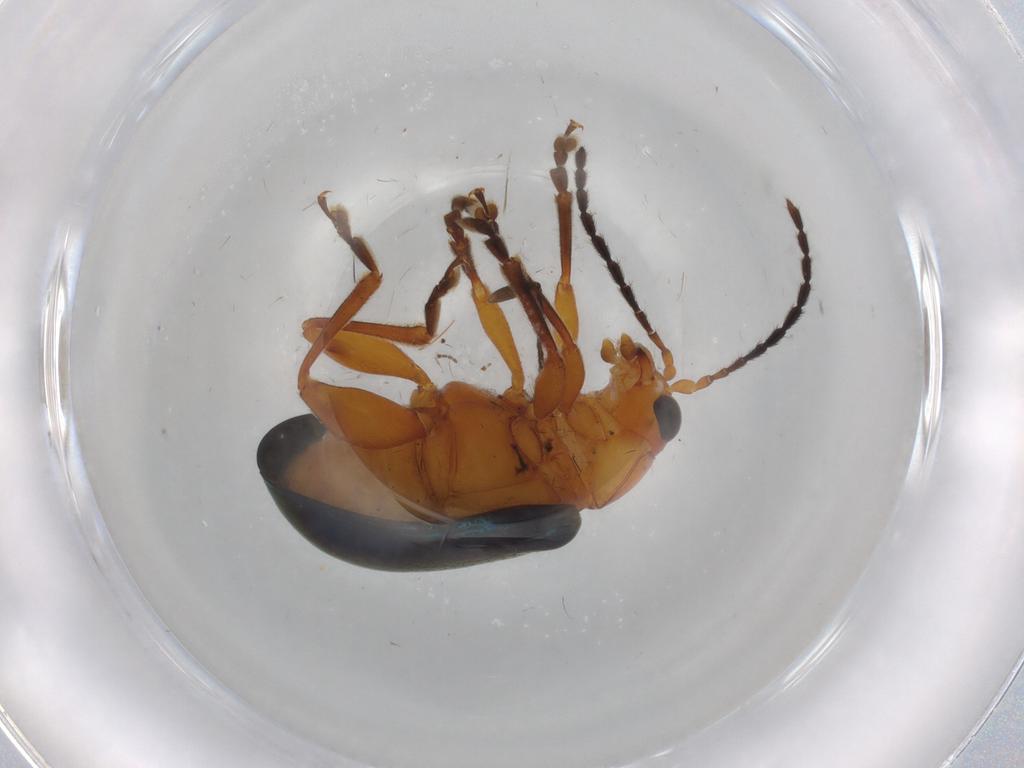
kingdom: Animalia
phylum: Arthropoda
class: Insecta
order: Coleoptera
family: Chrysomelidae
